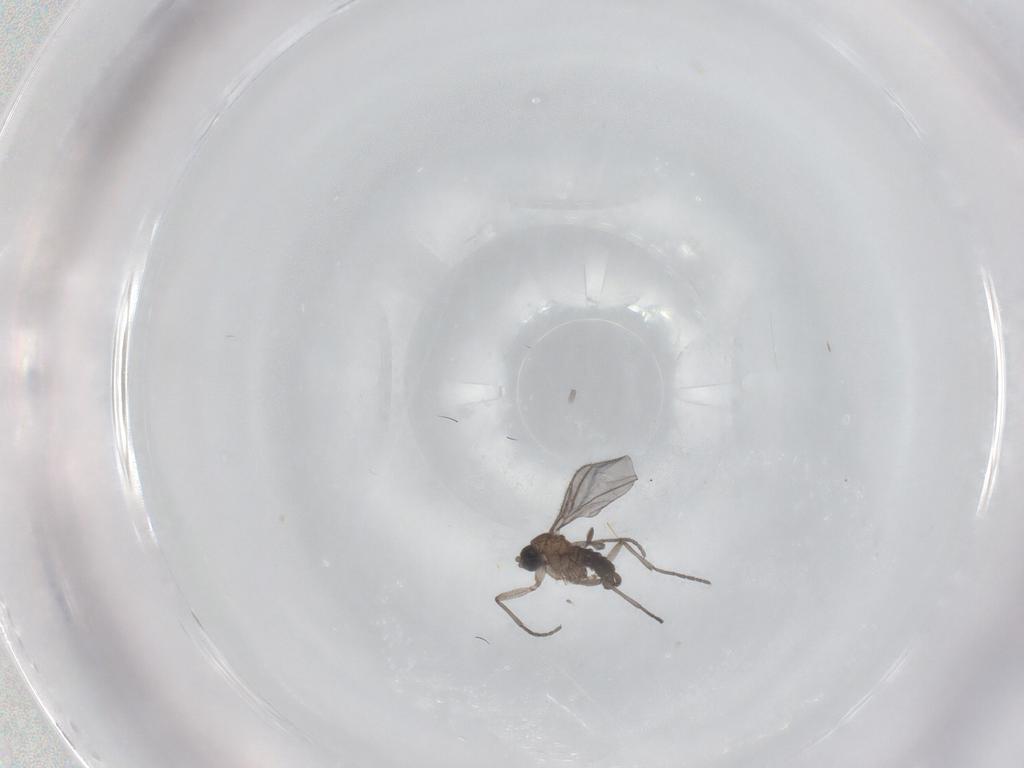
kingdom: Animalia
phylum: Arthropoda
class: Insecta
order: Diptera
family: Sciaridae
